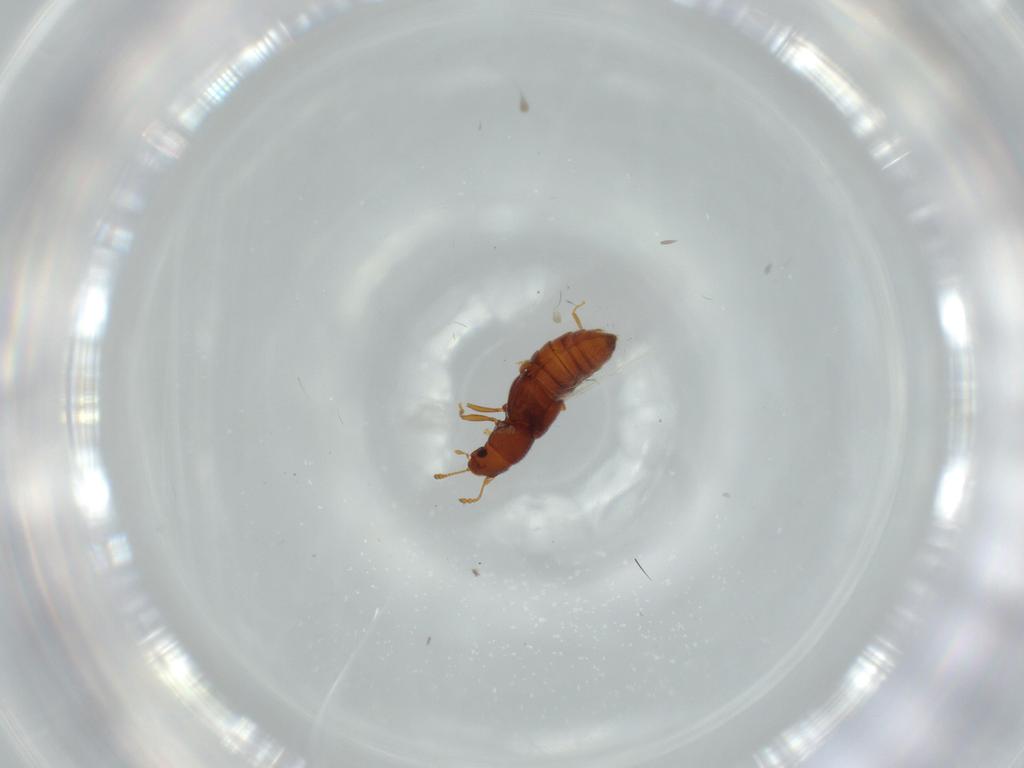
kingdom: Animalia
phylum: Arthropoda
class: Insecta
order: Coleoptera
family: Staphylinidae
